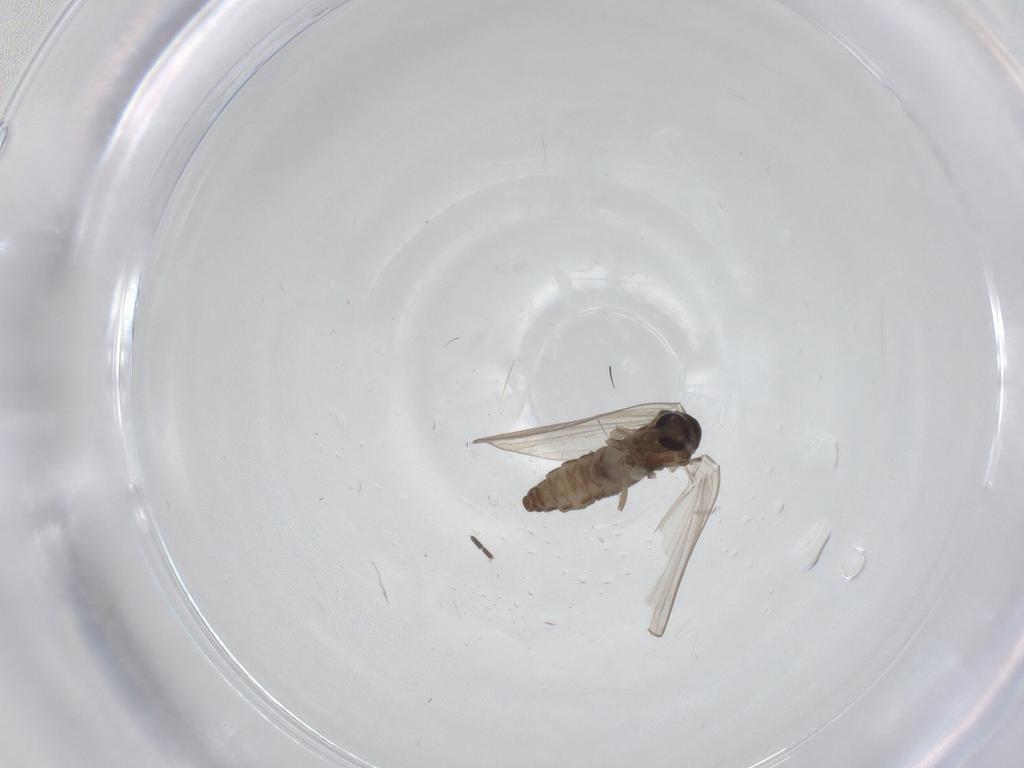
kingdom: Animalia
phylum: Arthropoda
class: Insecta
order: Diptera
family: Psychodidae
